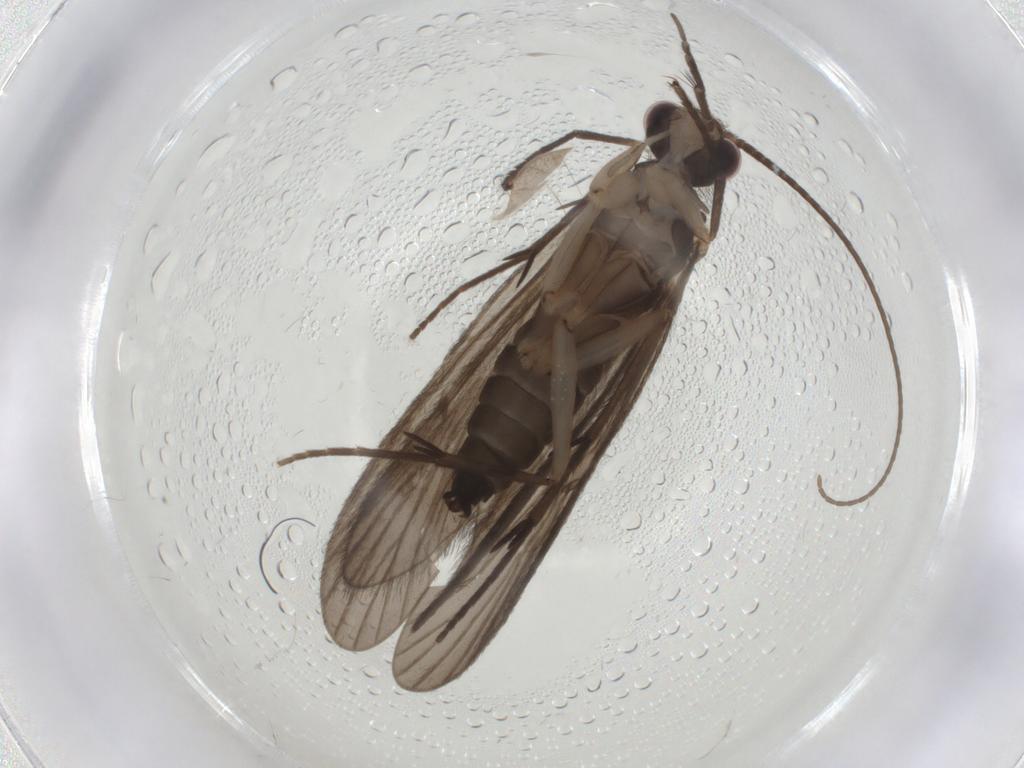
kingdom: Animalia
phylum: Arthropoda
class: Insecta
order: Trichoptera
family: Philopotamidae
